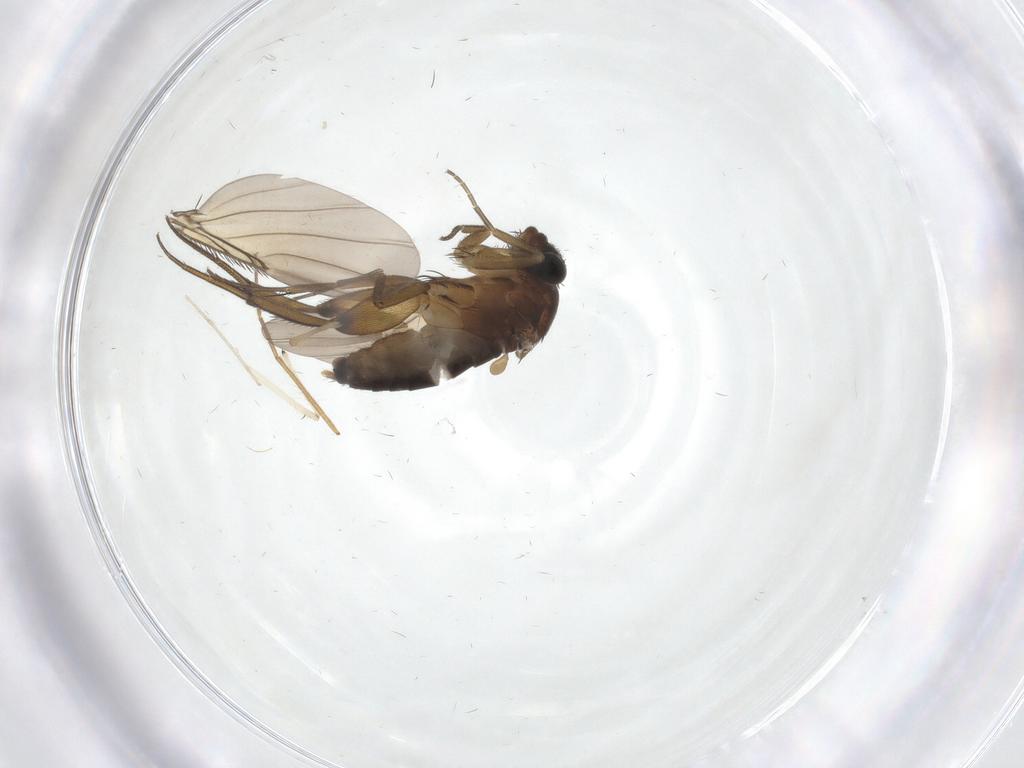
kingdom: Animalia
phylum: Arthropoda
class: Insecta
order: Diptera
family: Phoridae
